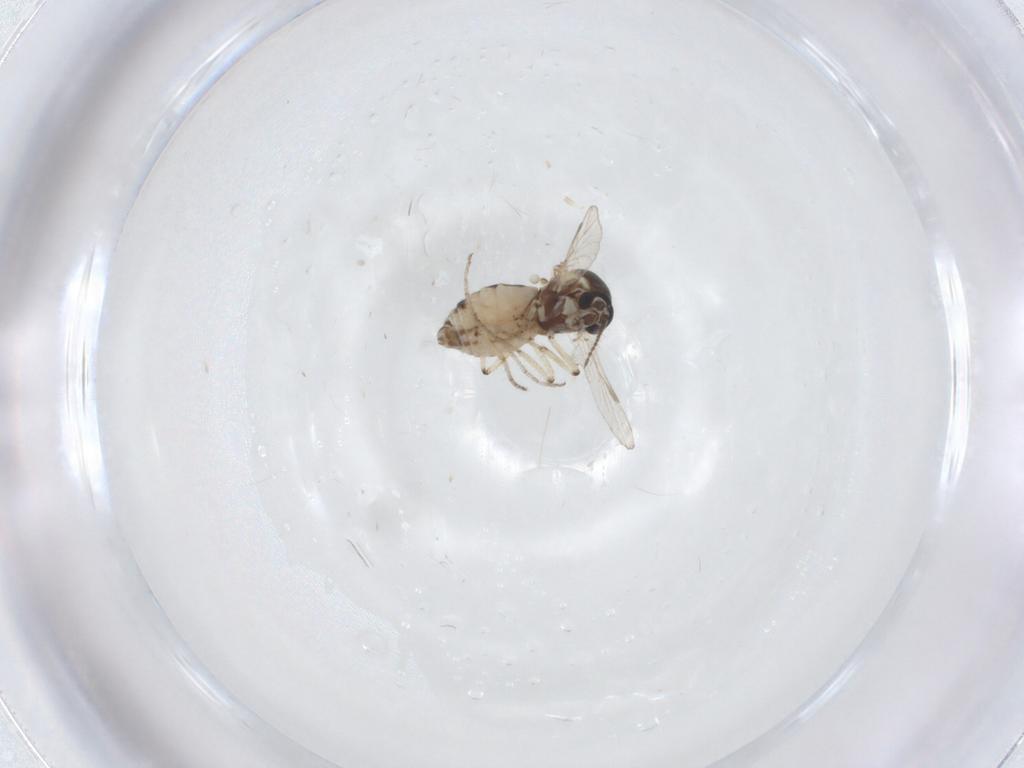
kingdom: Animalia
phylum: Arthropoda
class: Insecta
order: Diptera
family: Ceratopogonidae
